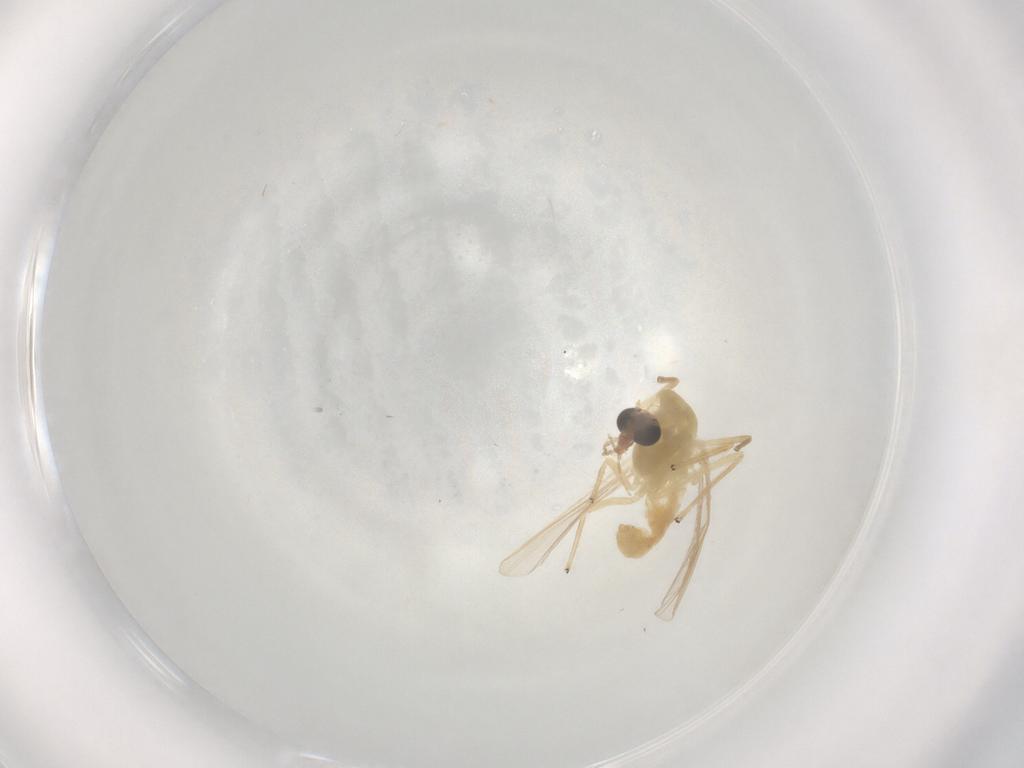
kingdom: Animalia
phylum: Arthropoda
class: Insecta
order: Diptera
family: Chironomidae
